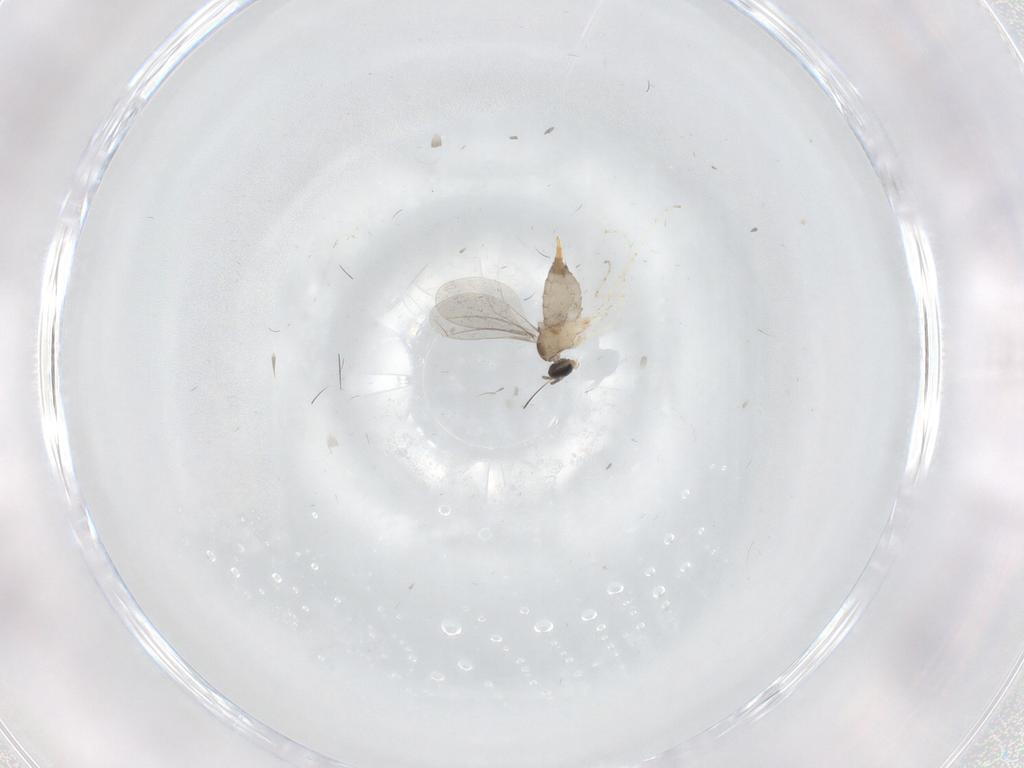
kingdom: Animalia
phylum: Arthropoda
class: Insecta
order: Diptera
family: Cecidomyiidae
